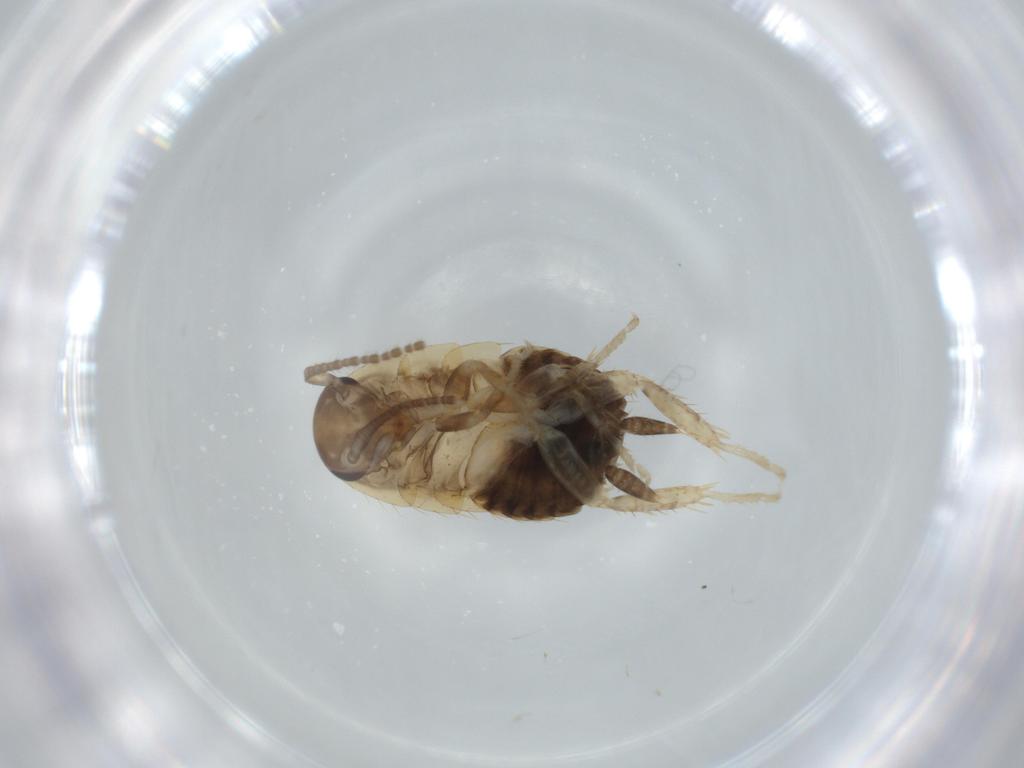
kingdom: Animalia
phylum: Arthropoda
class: Insecta
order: Blattodea
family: Ectobiidae
